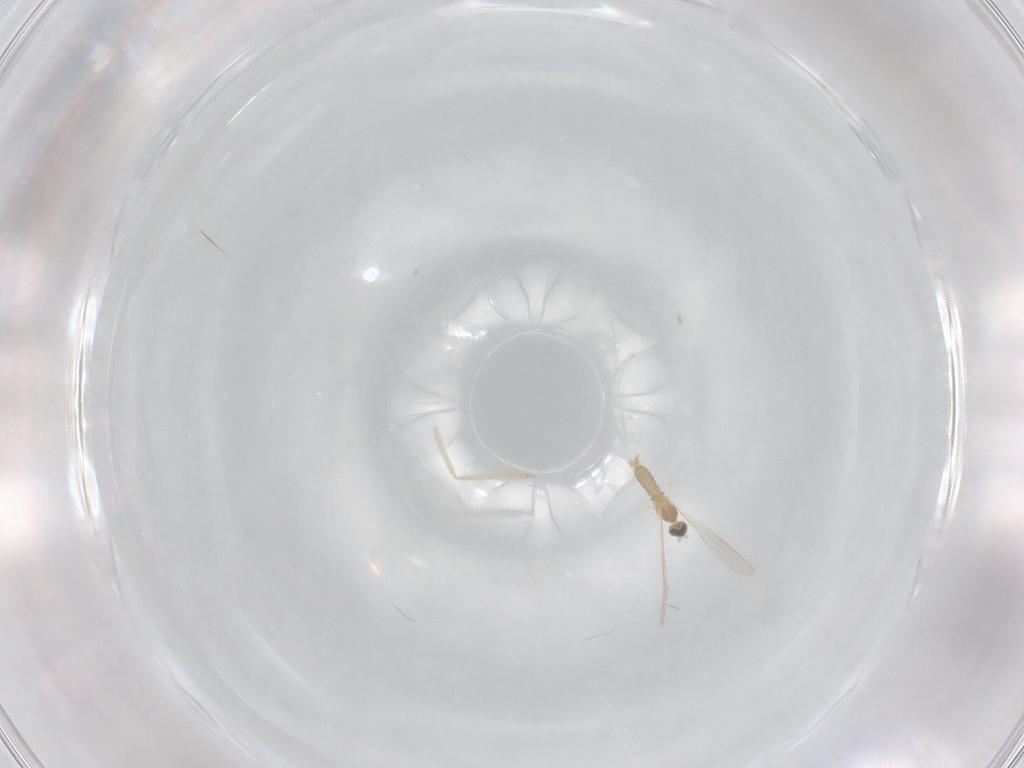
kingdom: Animalia
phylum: Arthropoda
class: Insecta
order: Diptera
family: Cecidomyiidae
